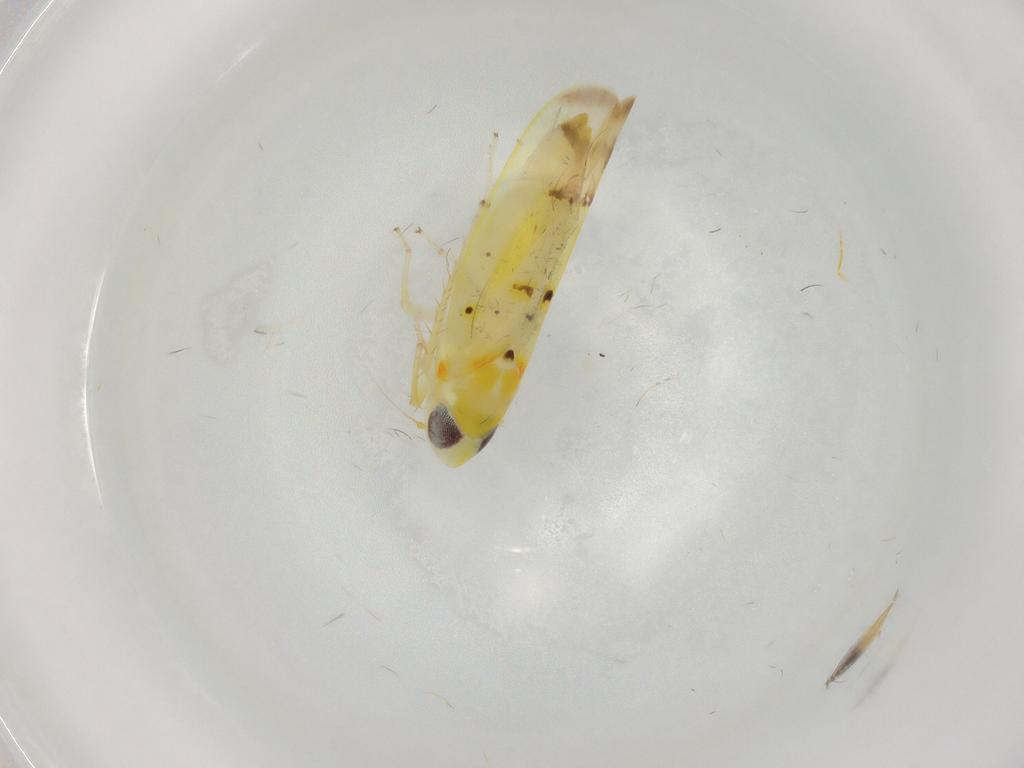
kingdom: Animalia
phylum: Arthropoda
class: Insecta
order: Hemiptera
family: Cicadellidae
